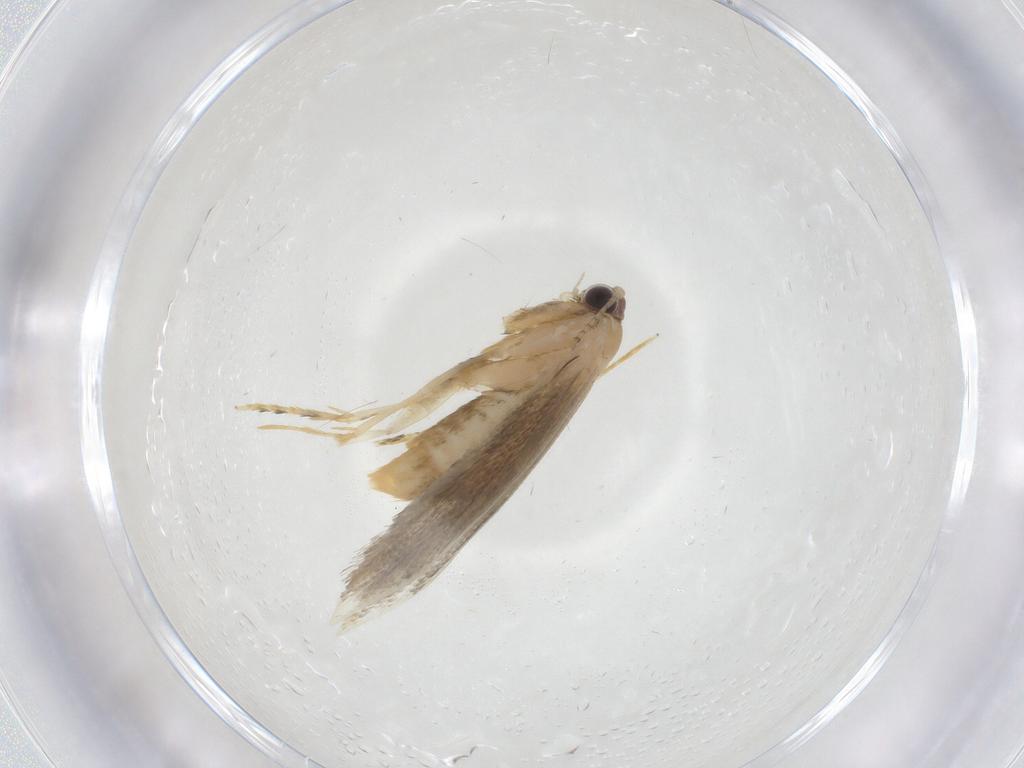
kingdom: Animalia
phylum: Arthropoda
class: Insecta
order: Lepidoptera
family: Tineidae
